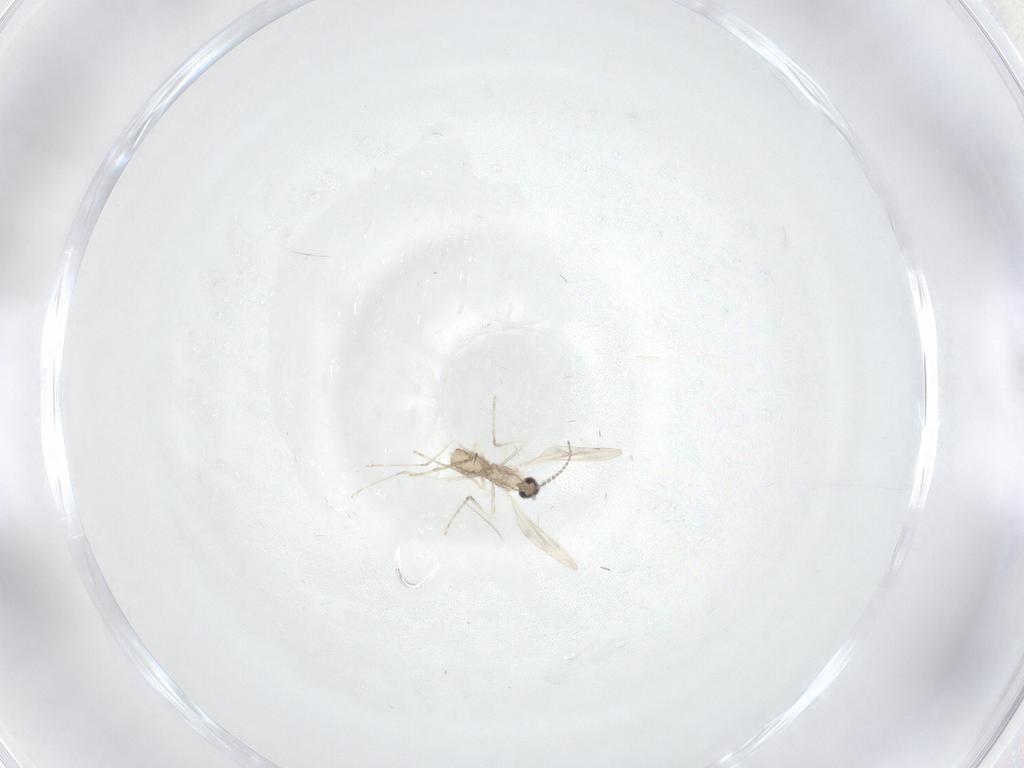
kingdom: Animalia
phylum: Arthropoda
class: Insecta
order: Diptera
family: Cecidomyiidae
